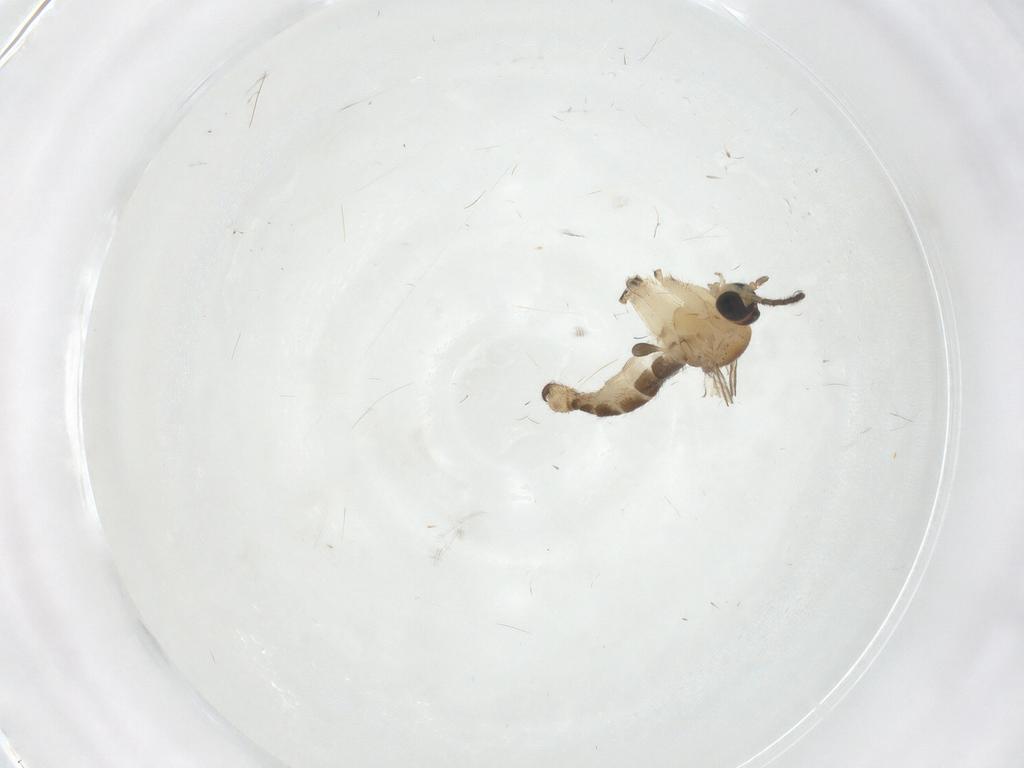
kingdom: Animalia
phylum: Arthropoda
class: Insecta
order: Diptera
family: Sciaridae
